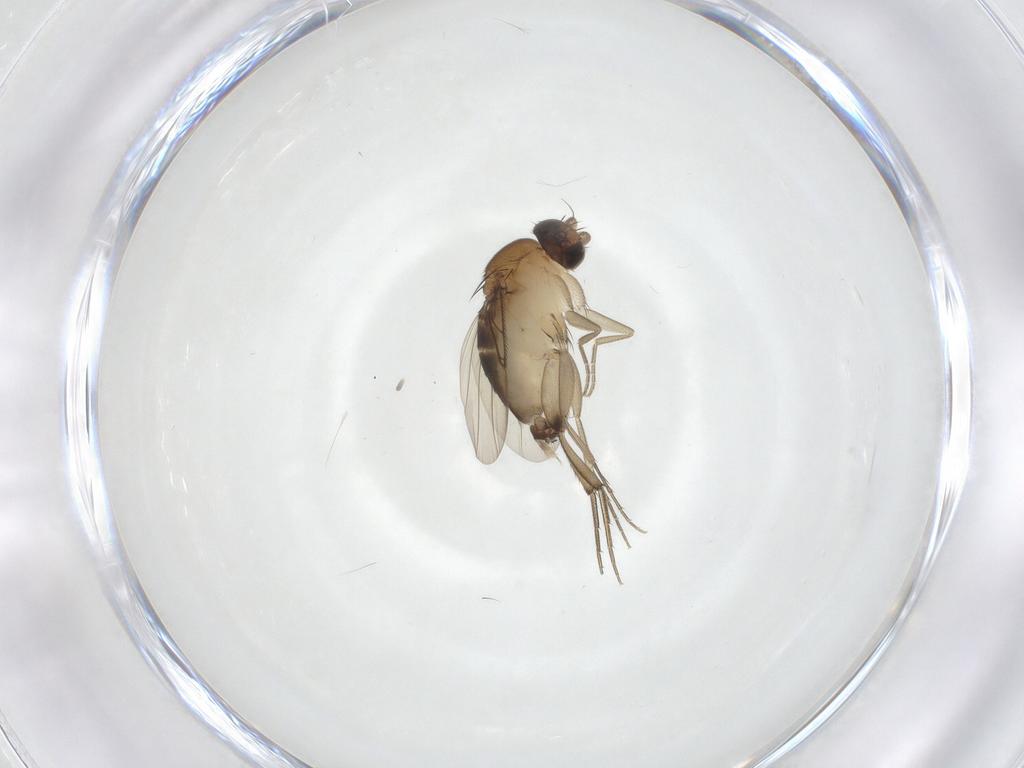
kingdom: Animalia
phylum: Arthropoda
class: Insecta
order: Diptera
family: Phoridae
